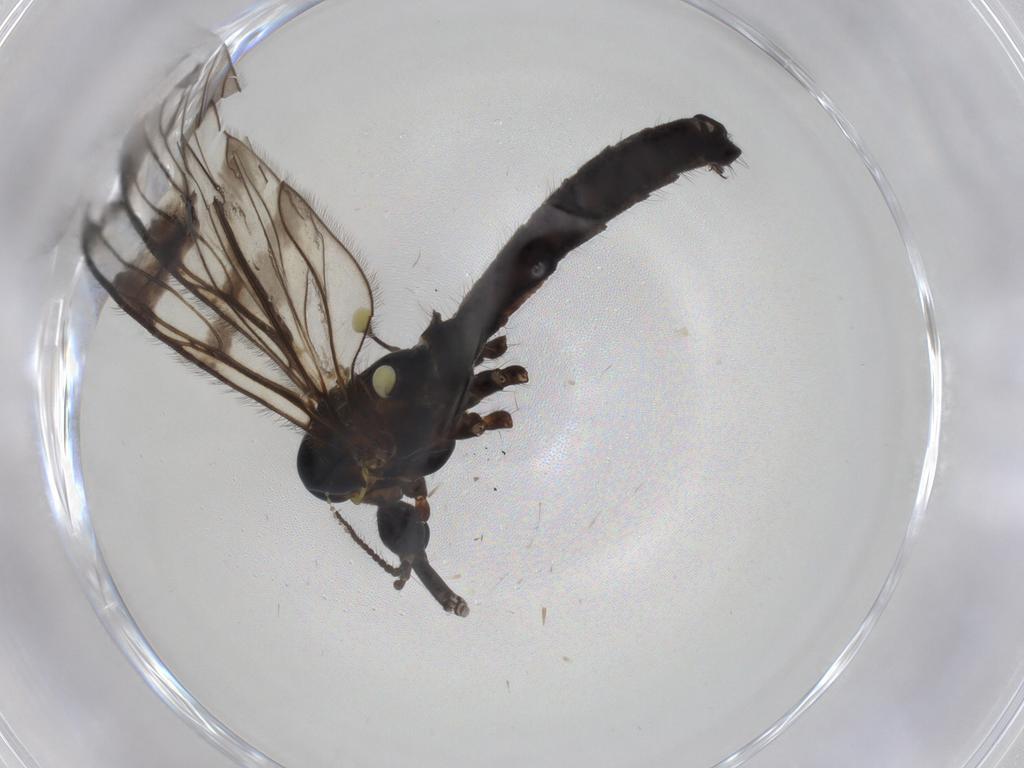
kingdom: Animalia
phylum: Arthropoda
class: Insecta
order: Diptera
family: Limoniidae
